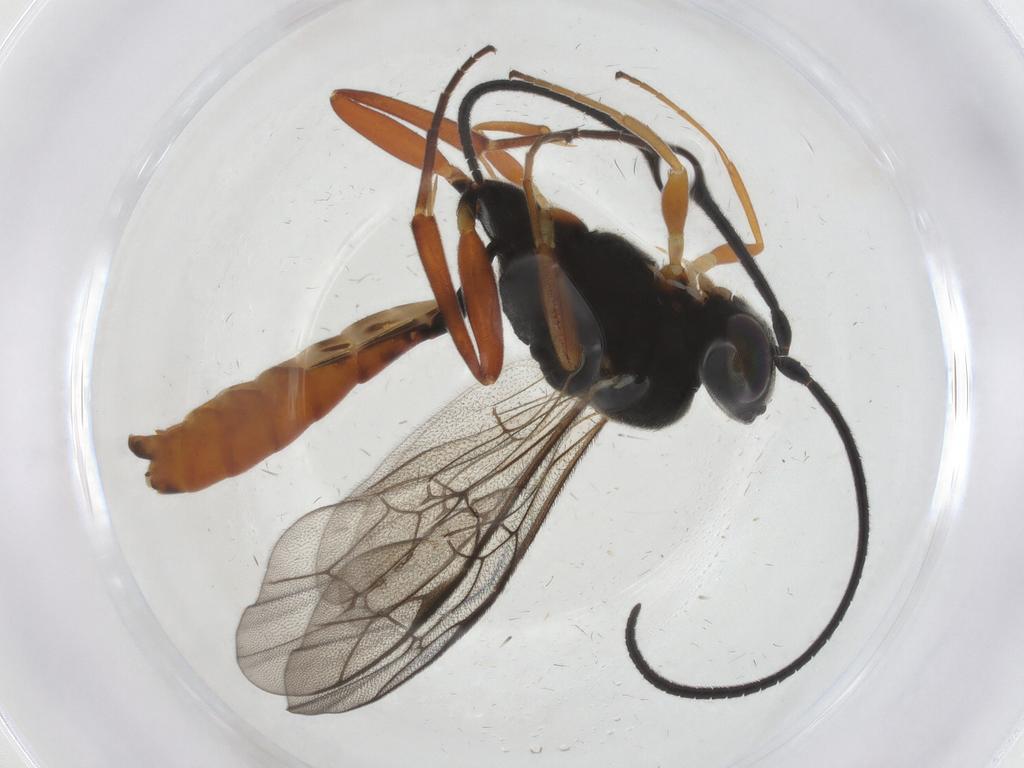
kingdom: Animalia
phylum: Arthropoda
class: Insecta
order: Hymenoptera
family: Ichneumonidae
